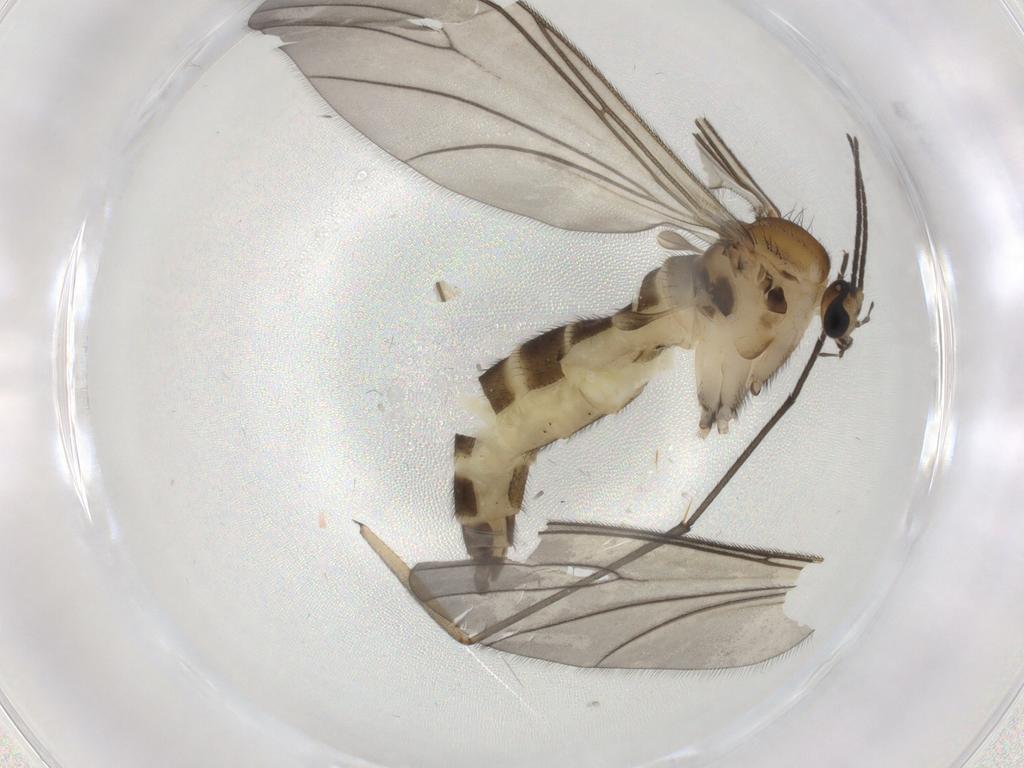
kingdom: Animalia
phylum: Arthropoda
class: Insecta
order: Diptera
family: Sciaridae
